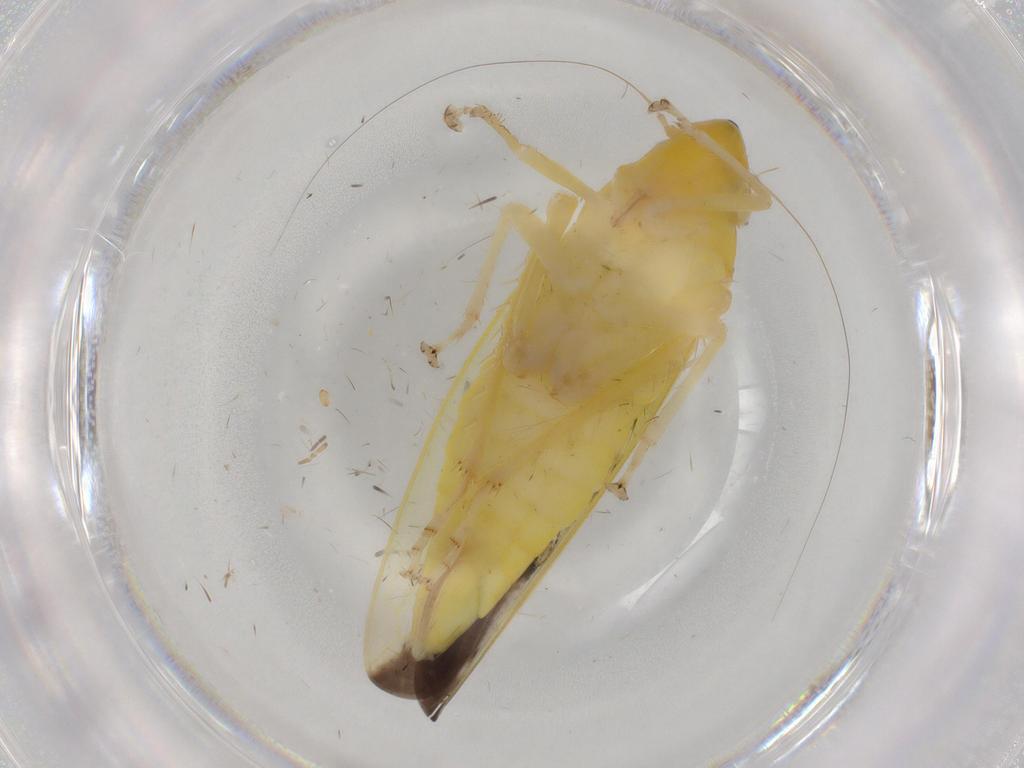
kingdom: Animalia
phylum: Arthropoda
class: Insecta
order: Hemiptera
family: Cicadellidae
